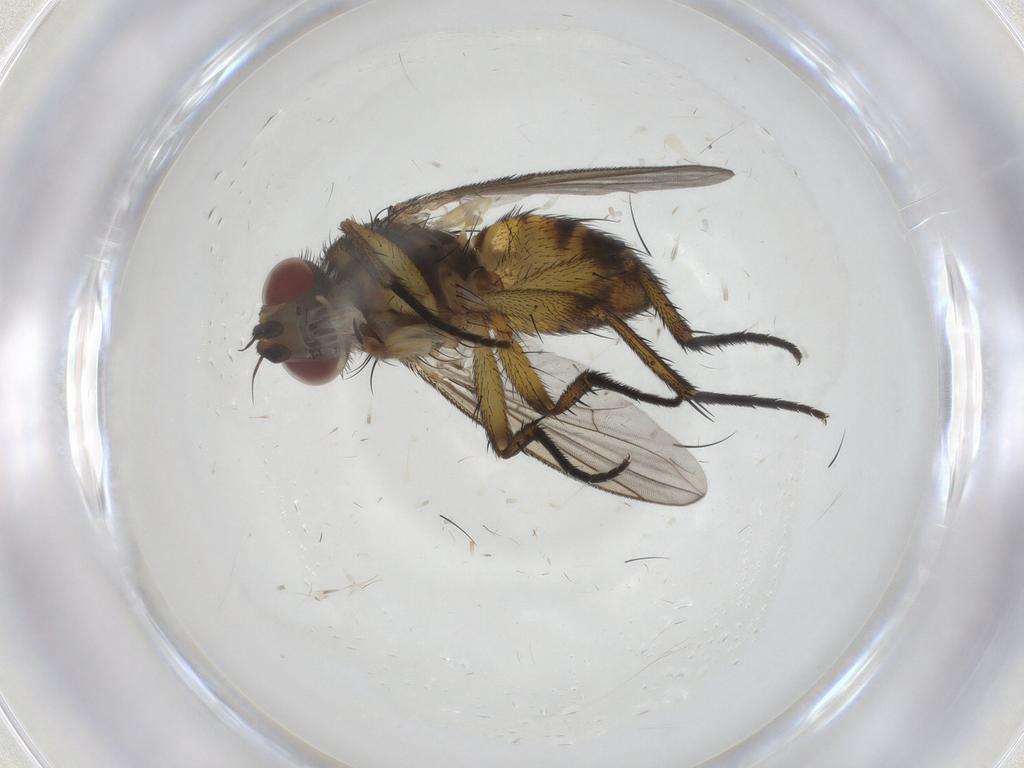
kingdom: Animalia
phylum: Arthropoda
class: Insecta
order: Diptera
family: Tachinidae
